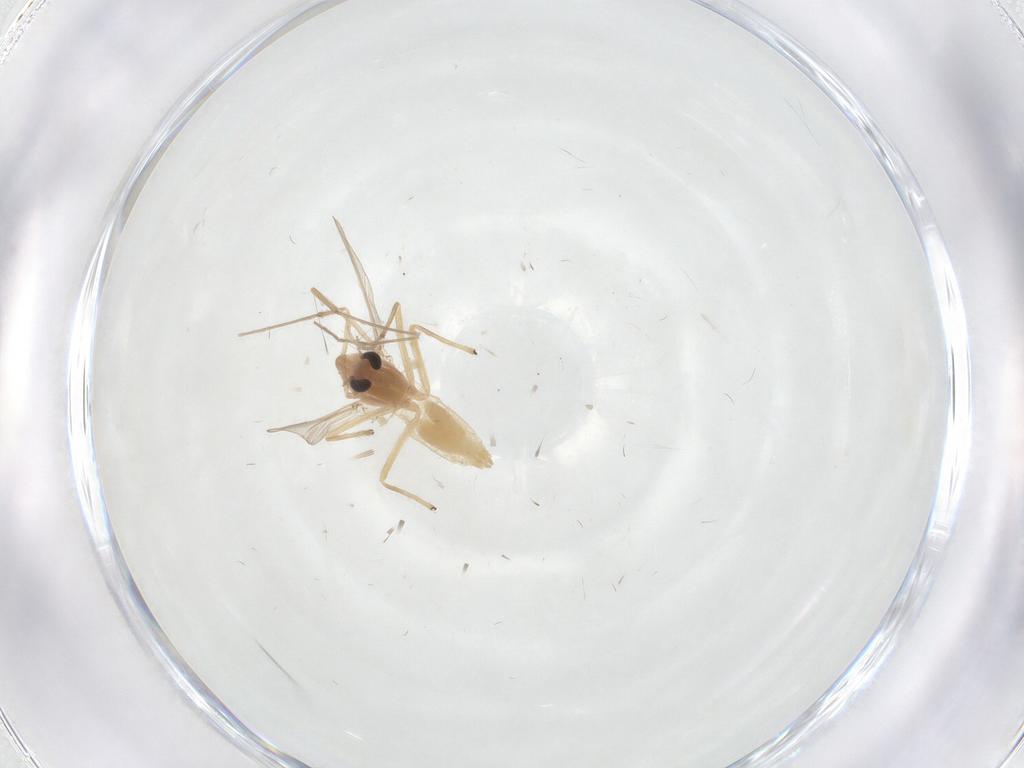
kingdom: Animalia
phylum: Arthropoda
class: Insecta
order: Diptera
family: Chironomidae
